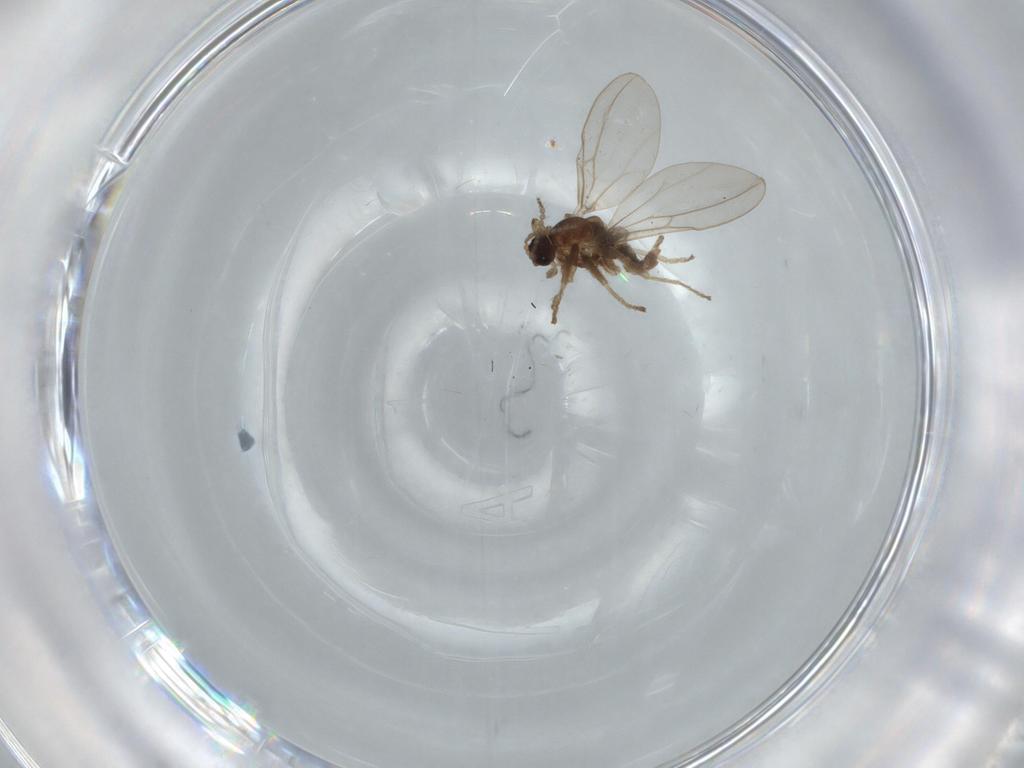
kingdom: Animalia
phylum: Arthropoda
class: Insecta
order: Diptera
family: Cecidomyiidae
